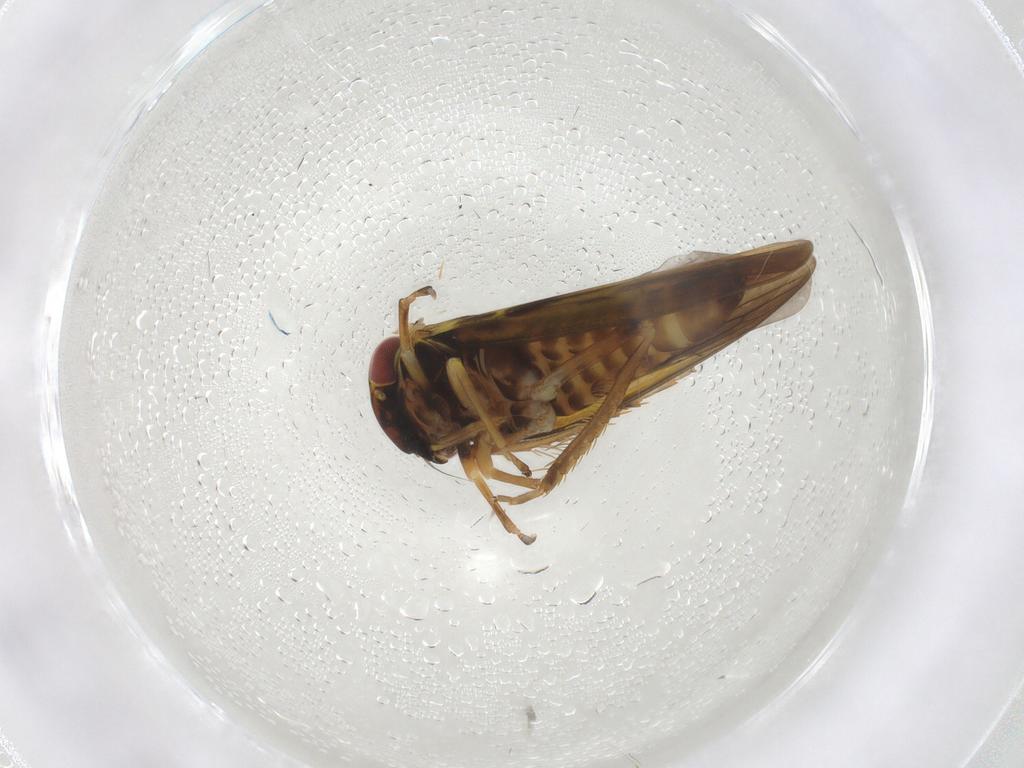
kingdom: Animalia
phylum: Arthropoda
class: Insecta
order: Hemiptera
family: Cicadellidae
